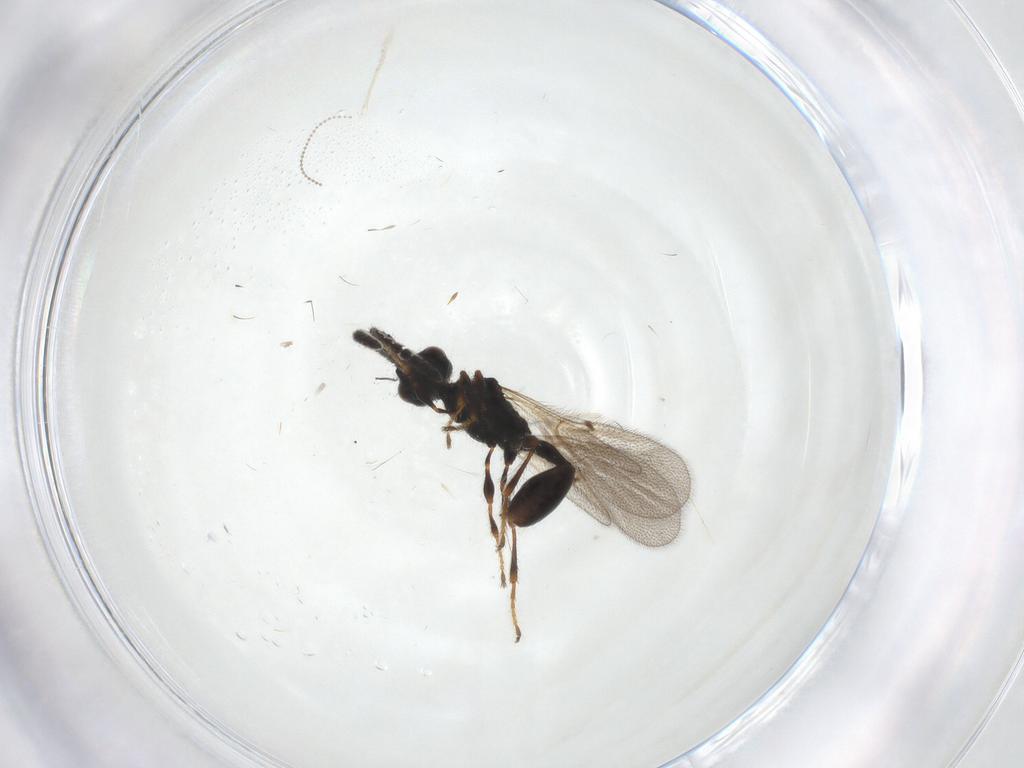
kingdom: Animalia
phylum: Arthropoda
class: Insecta
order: Hymenoptera
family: Diapriidae
